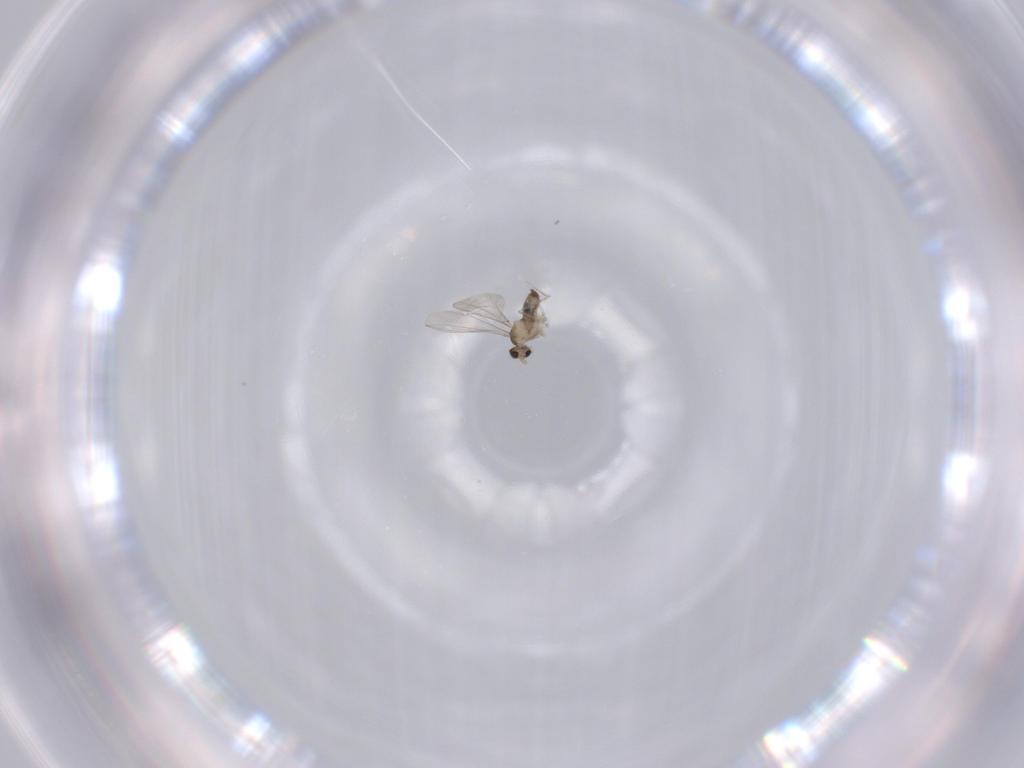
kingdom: Animalia
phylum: Arthropoda
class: Insecta
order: Diptera
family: Cecidomyiidae
